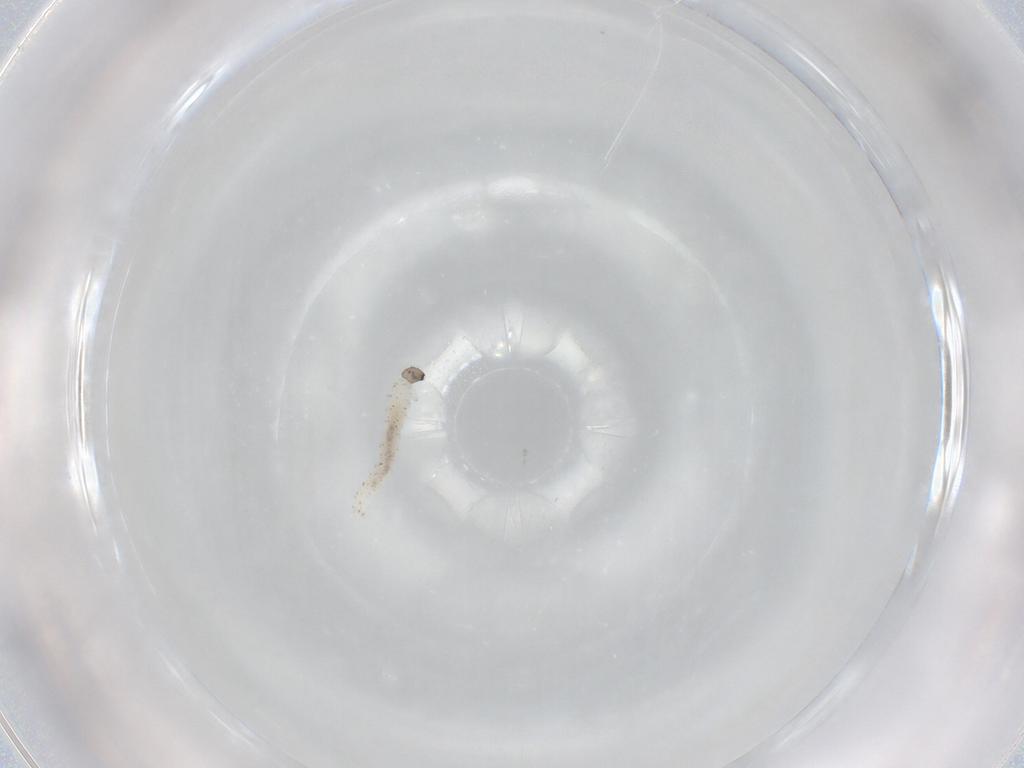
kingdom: Animalia
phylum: Arthropoda
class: Insecta
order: Diptera
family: Ceratopogonidae
